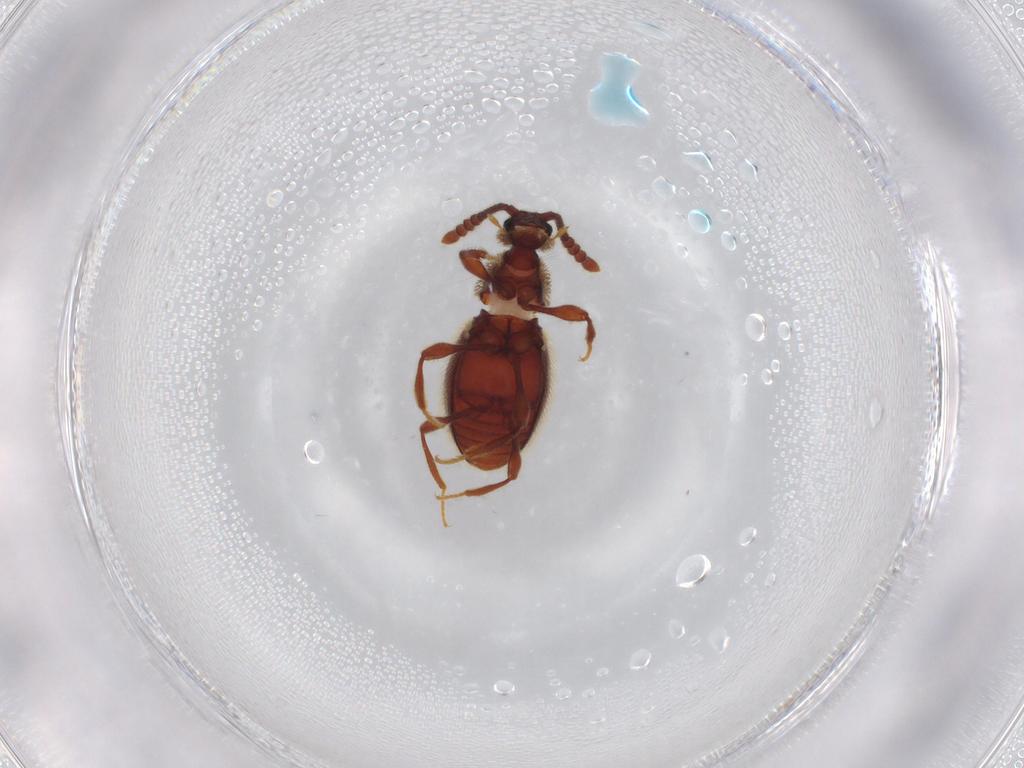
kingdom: Animalia
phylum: Arthropoda
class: Insecta
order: Coleoptera
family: Staphylinidae
